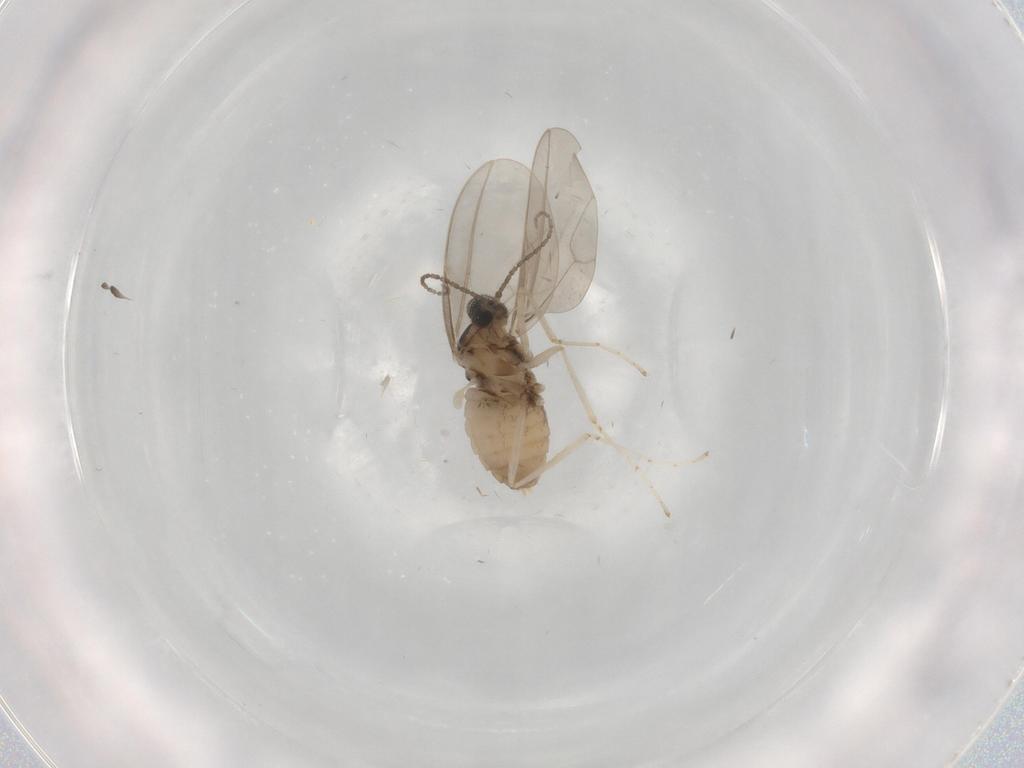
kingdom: Animalia
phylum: Arthropoda
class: Insecta
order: Diptera
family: Cecidomyiidae
